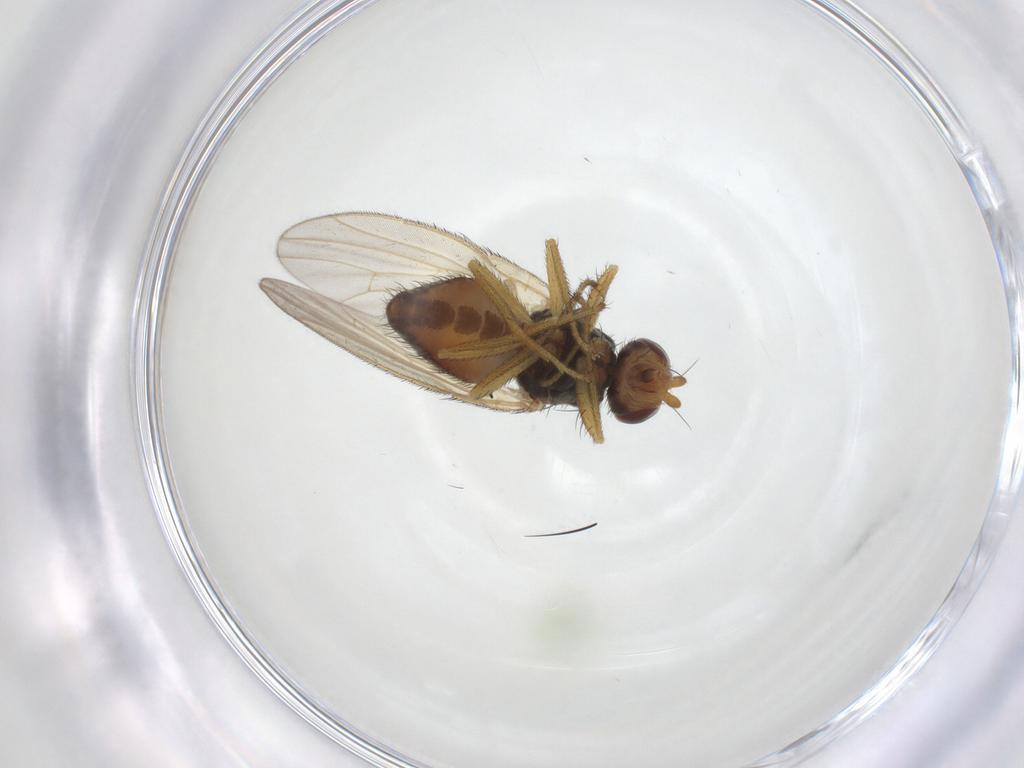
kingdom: Animalia
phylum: Arthropoda
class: Insecta
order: Diptera
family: Heleomyzidae
